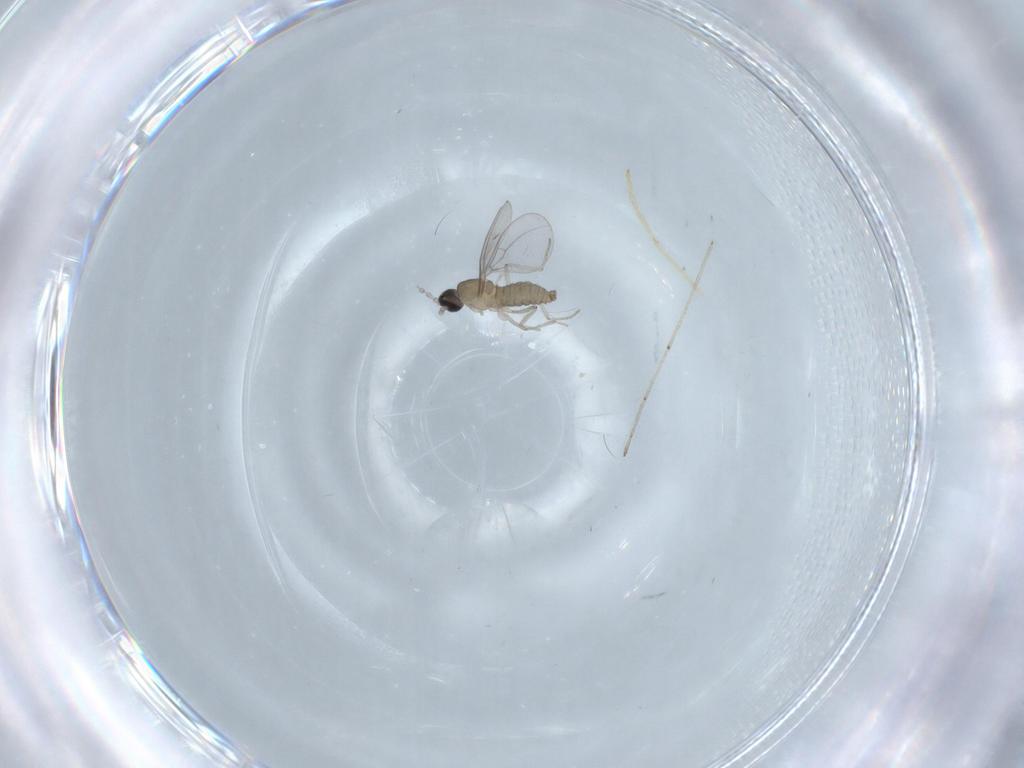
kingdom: Animalia
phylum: Arthropoda
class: Insecta
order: Diptera
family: Cecidomyiidae
